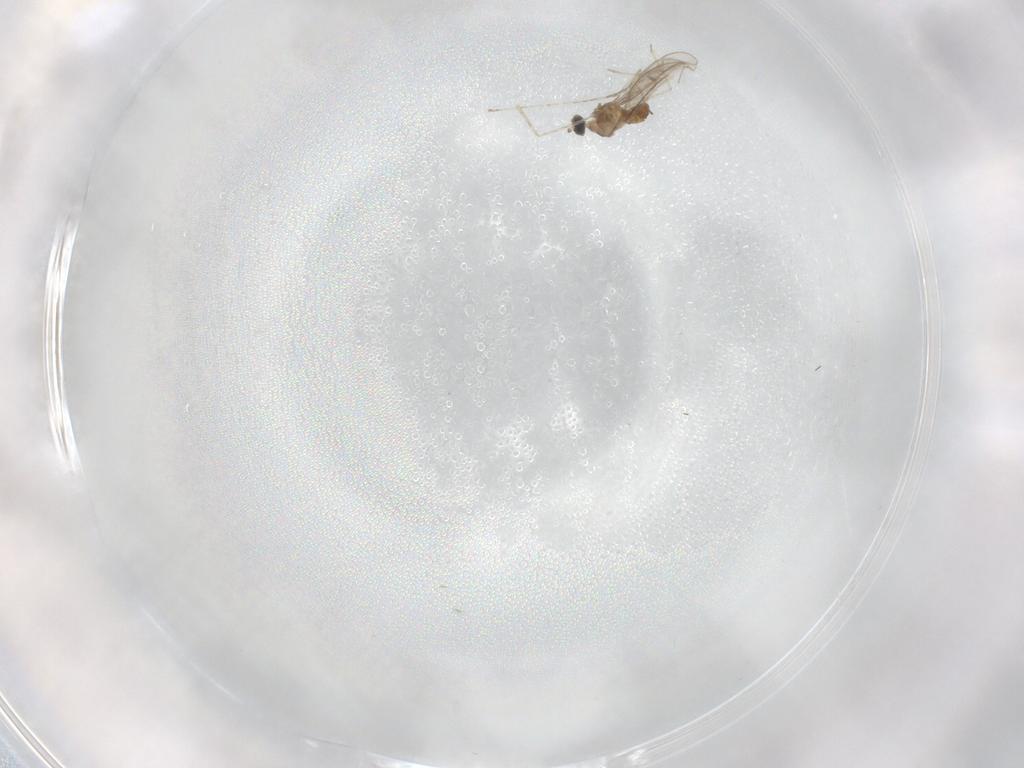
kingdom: Animalia
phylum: Arthropoda
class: Insecta
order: Diptera
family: Cecidomyiidae
